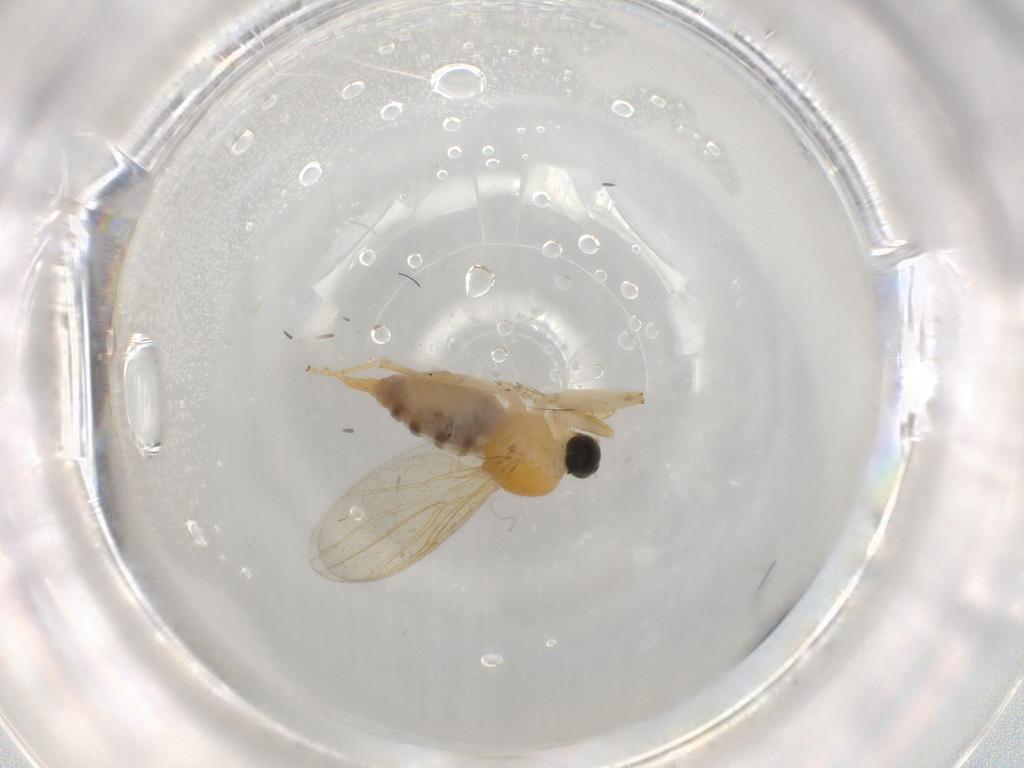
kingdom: Animalia
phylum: Arthropoda
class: Insecta
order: Diptera
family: Hybotidae
